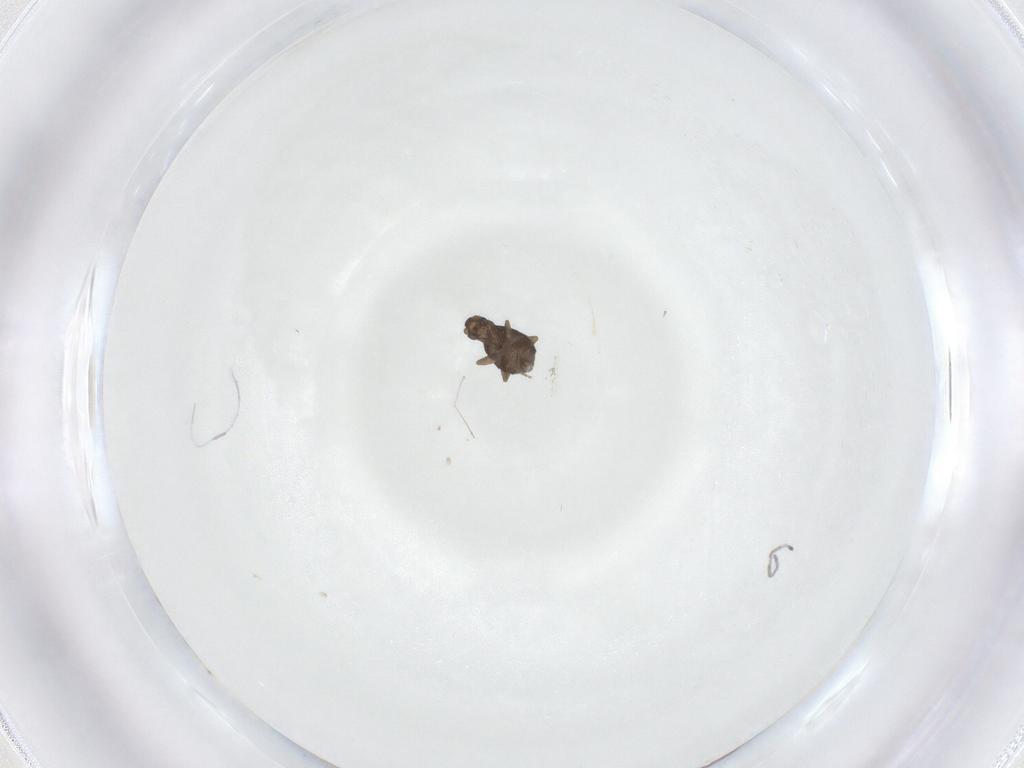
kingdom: Animalia
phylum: Arthropoda
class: Insecta
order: Diptera
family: Phoridae
